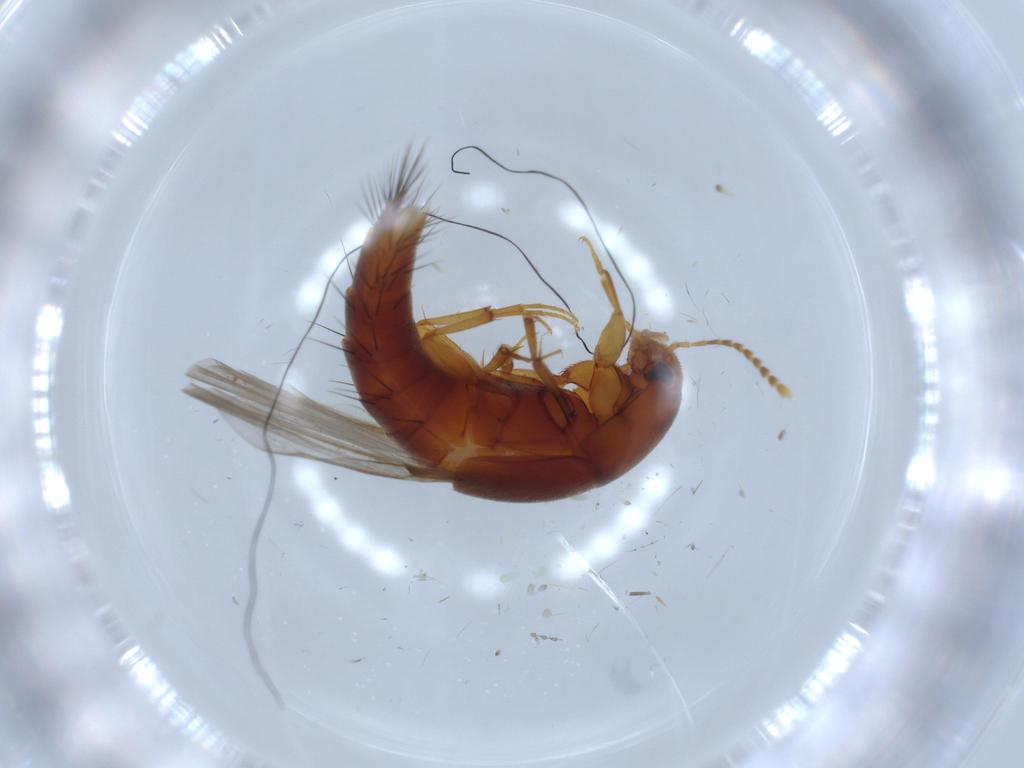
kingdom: Animalia
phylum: Arthropoda
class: Insecta
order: Coleoptera
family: Staphylinidae
